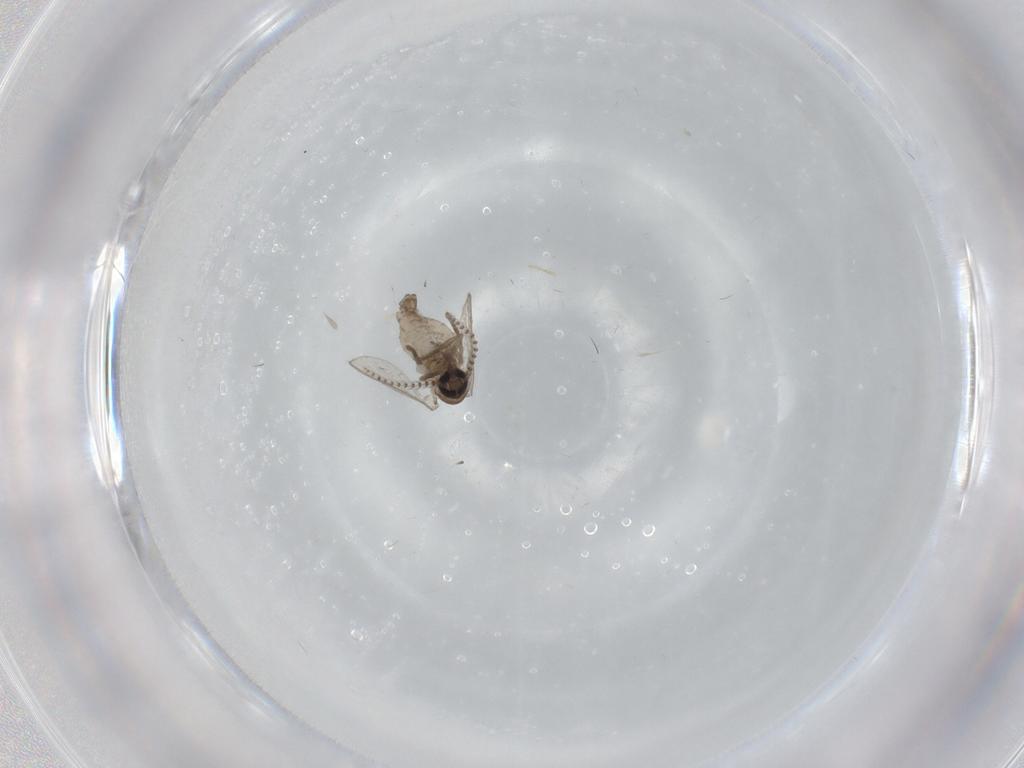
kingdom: Animalia
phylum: Arthropoda
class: Insecta
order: Diptera
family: Psychodidae
